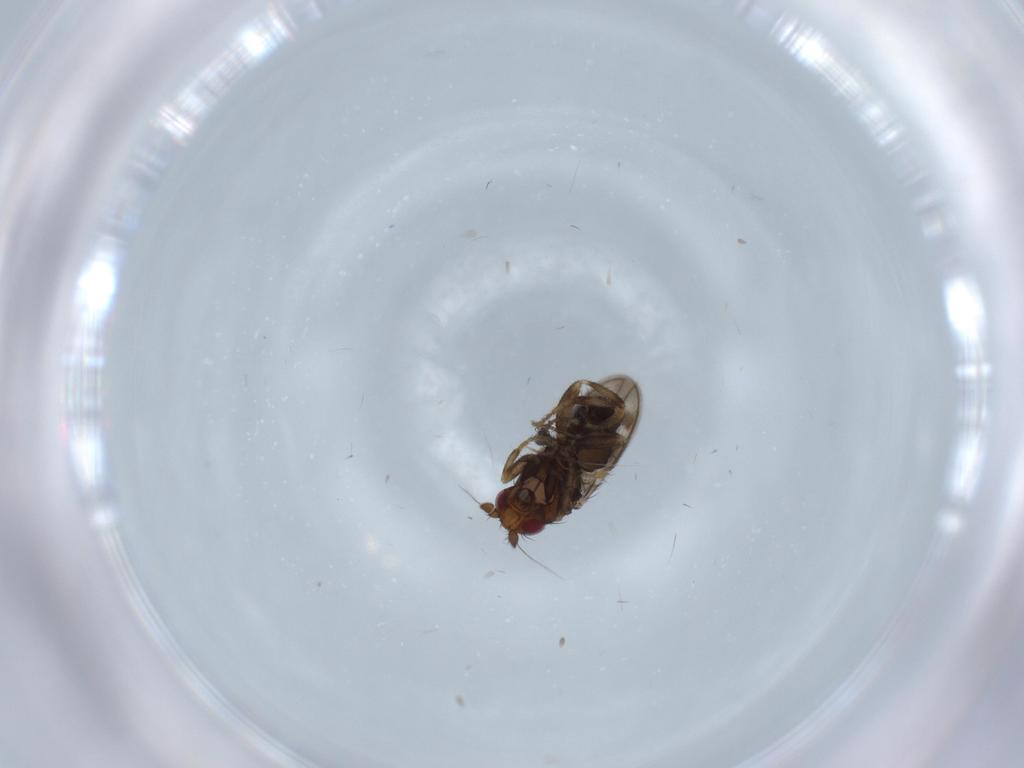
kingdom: Animalia
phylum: Arthropoda
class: Insecta
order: Diptera
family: Sphaeroceridae
